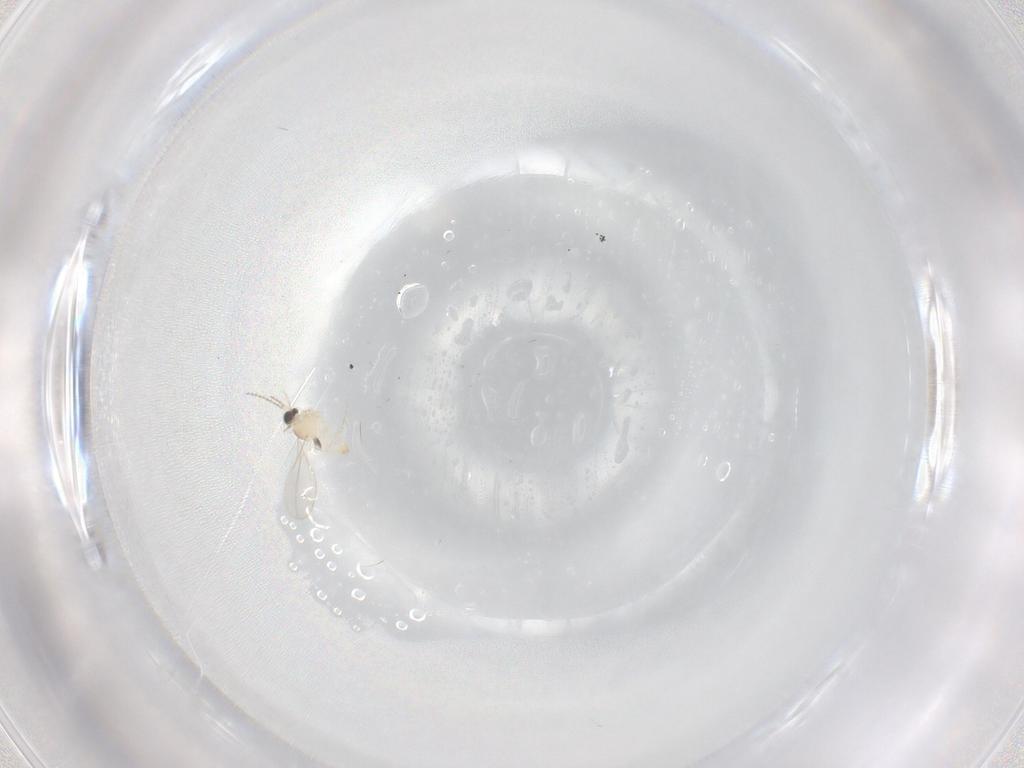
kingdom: Animalia
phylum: Arthropoda
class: Insecta
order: Diptera
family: Cecidomyiidae
